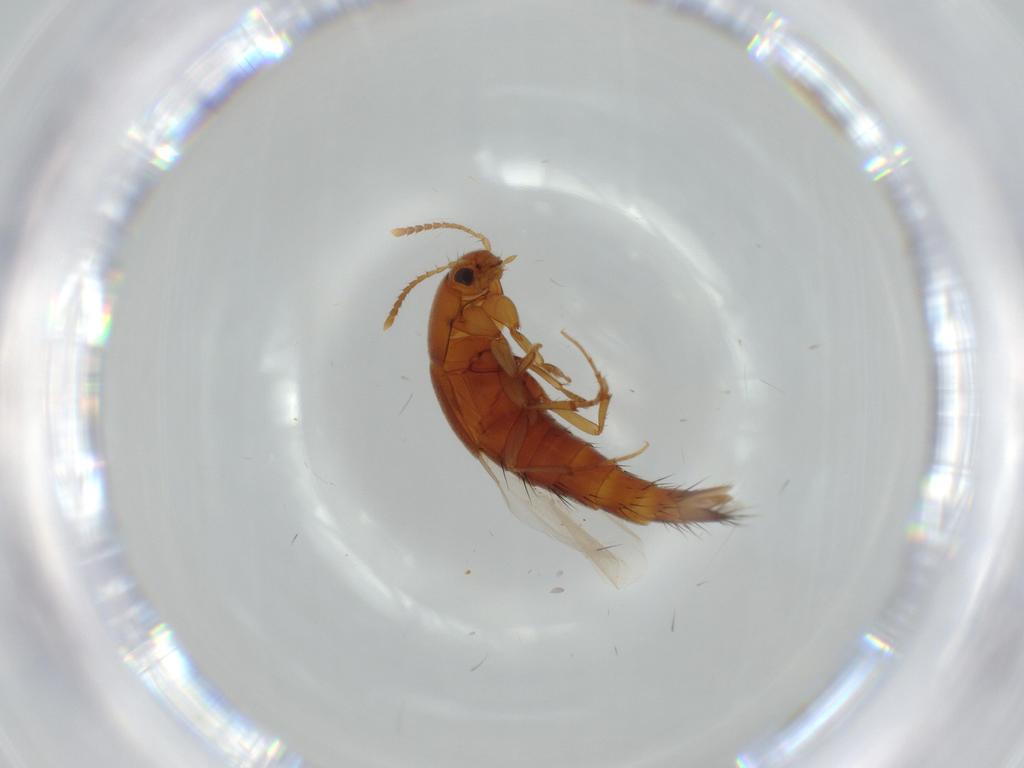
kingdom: Animalia
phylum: Arthropoda
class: Insecta
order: Coleoptera
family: Staphylinidae
